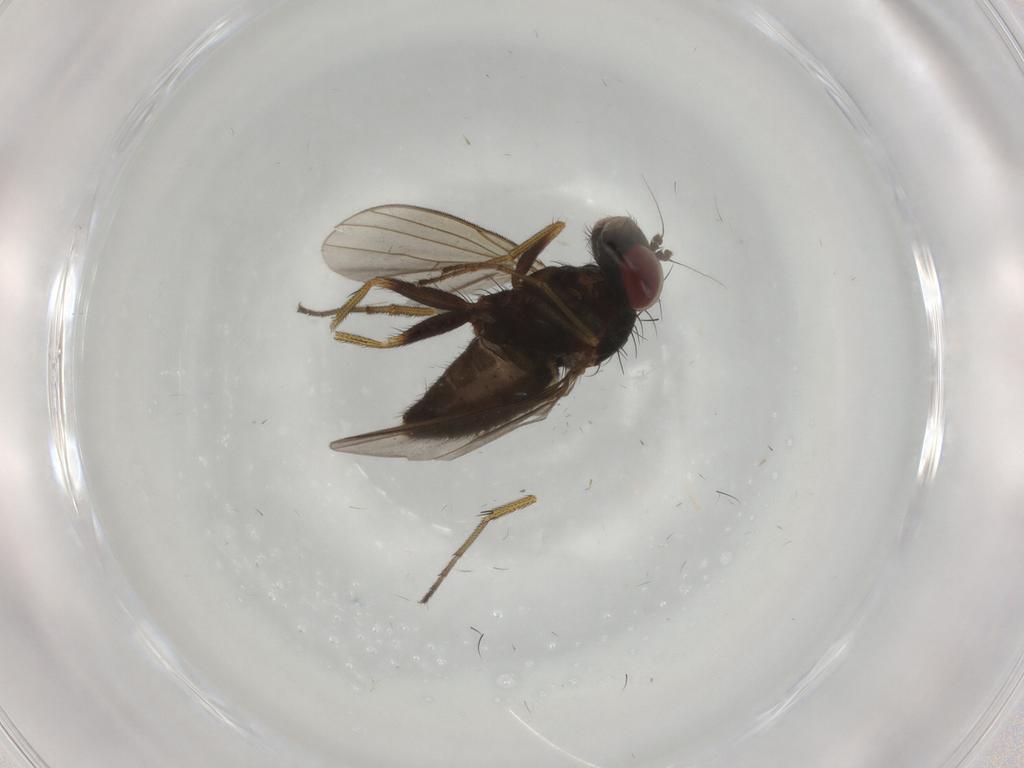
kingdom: Animalia
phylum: Arthropoda
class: Insecta
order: Diptera
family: Dolichopodidae
